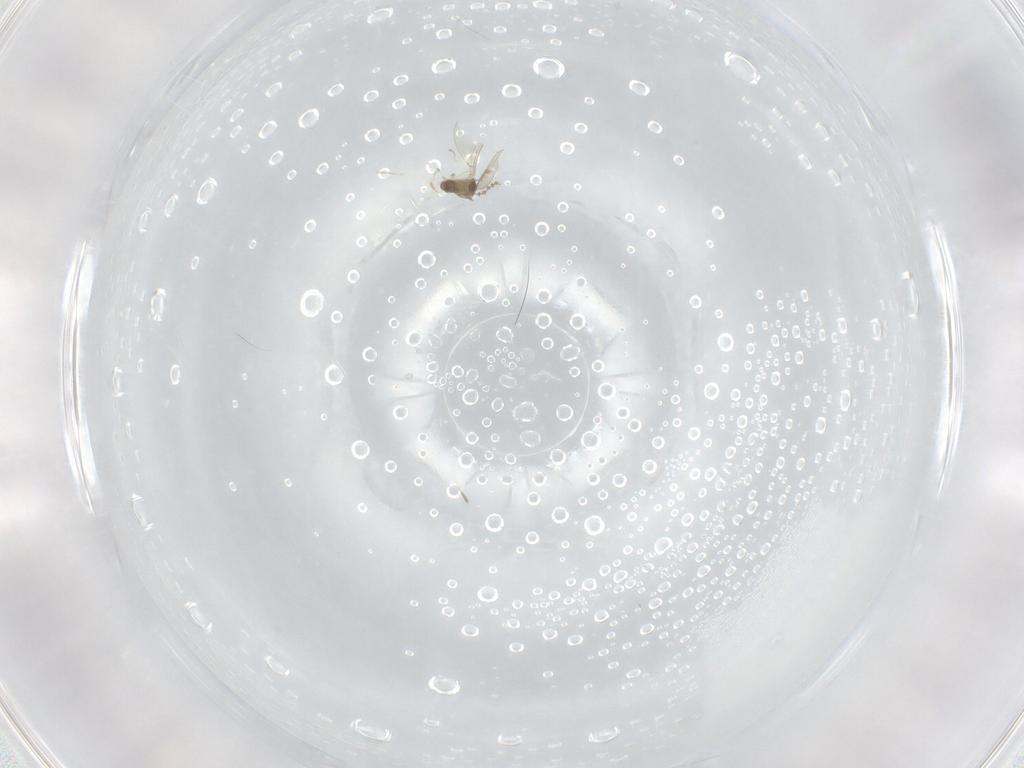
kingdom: Animalia
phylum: Arthropoda
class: Insecta
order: Diptera
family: Cecidomyiidae
